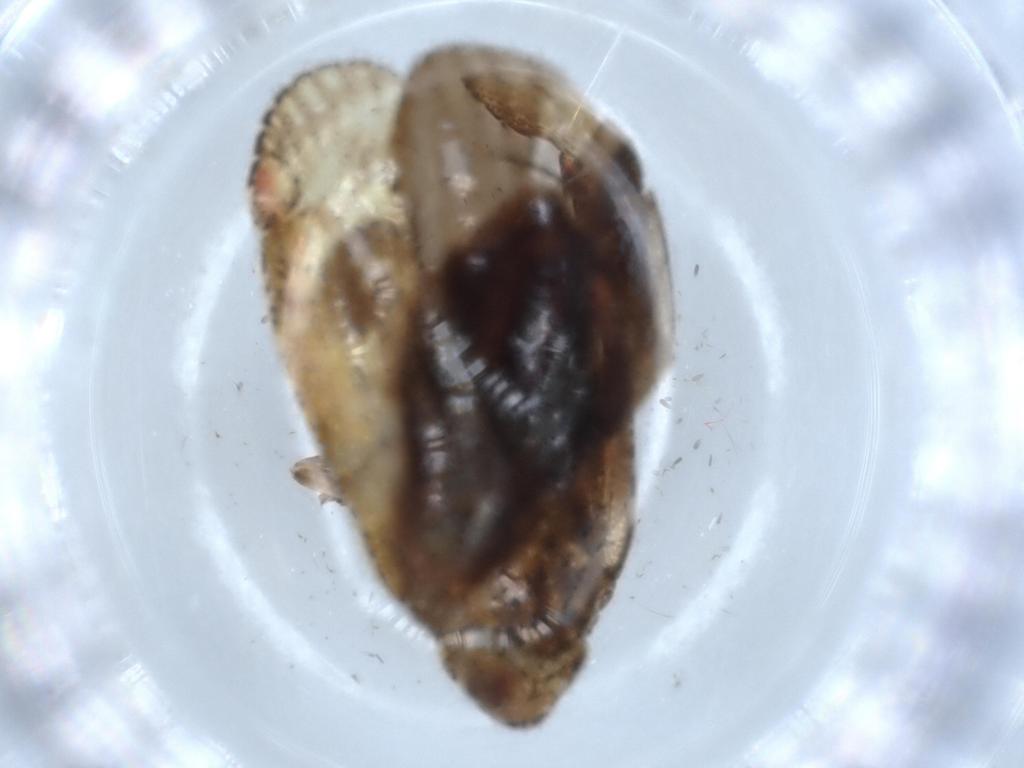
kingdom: Animalia
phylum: Arthropoda
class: Insecta
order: Hemiptera
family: Achilidae
